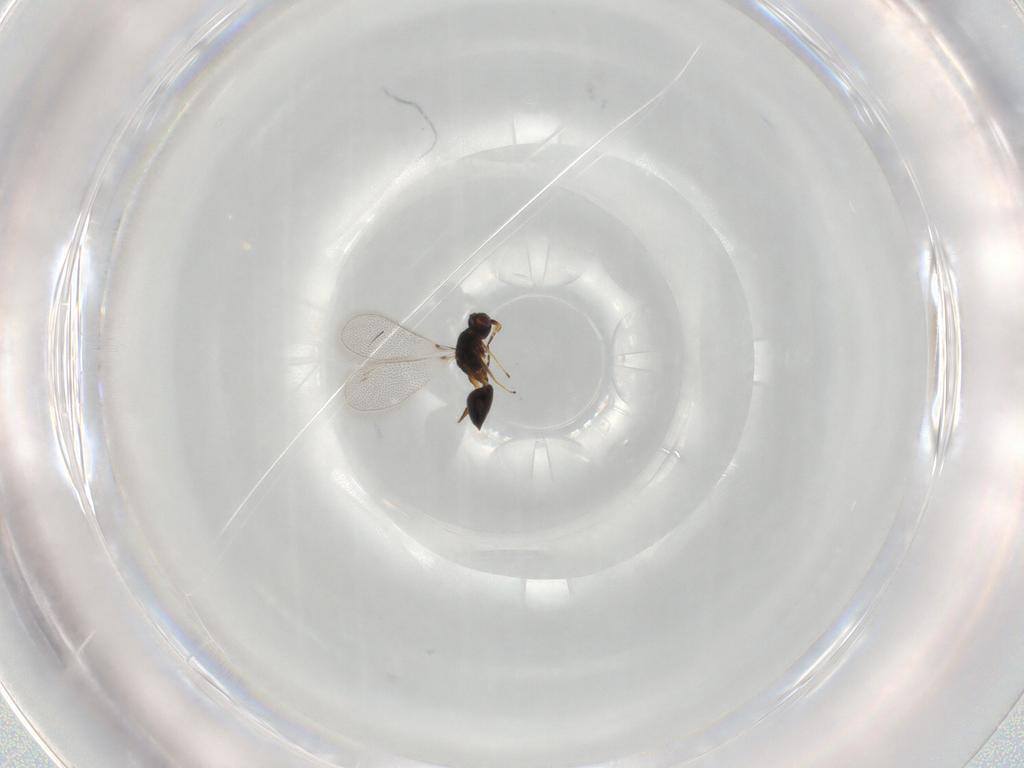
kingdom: Animalia
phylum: Arthropoda
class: Insecta
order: Hymenoptera
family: Mymaridae
